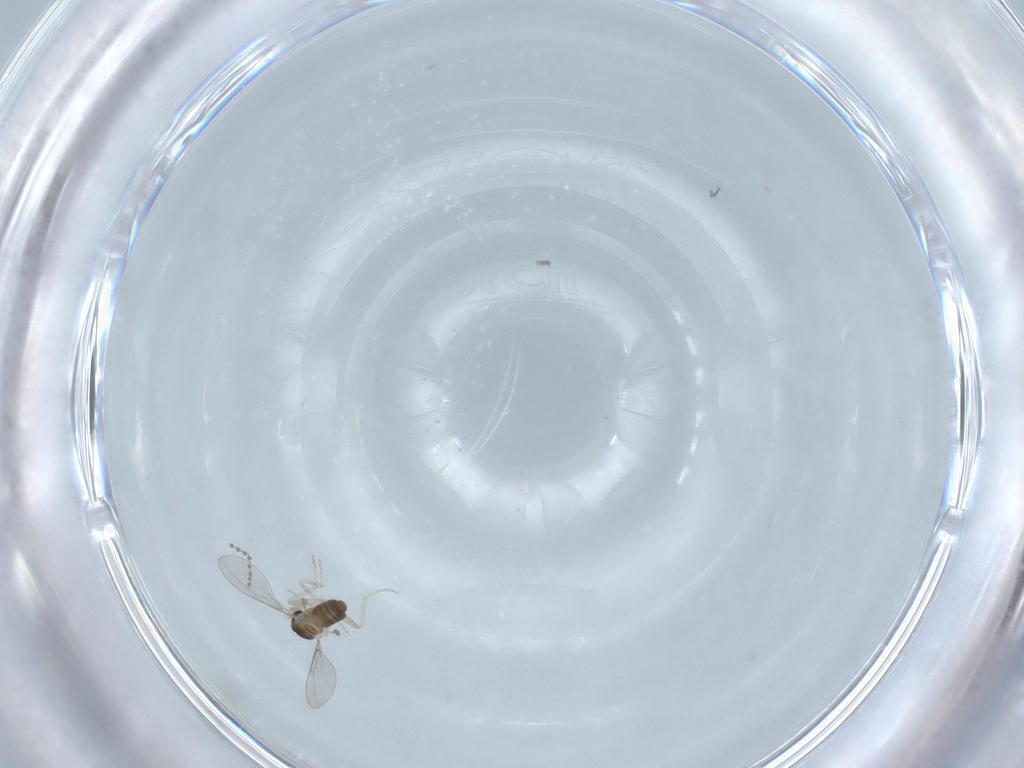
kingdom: Animalia
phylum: Arthropoda
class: Insecta
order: Diptera
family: Cecidomyiidae
